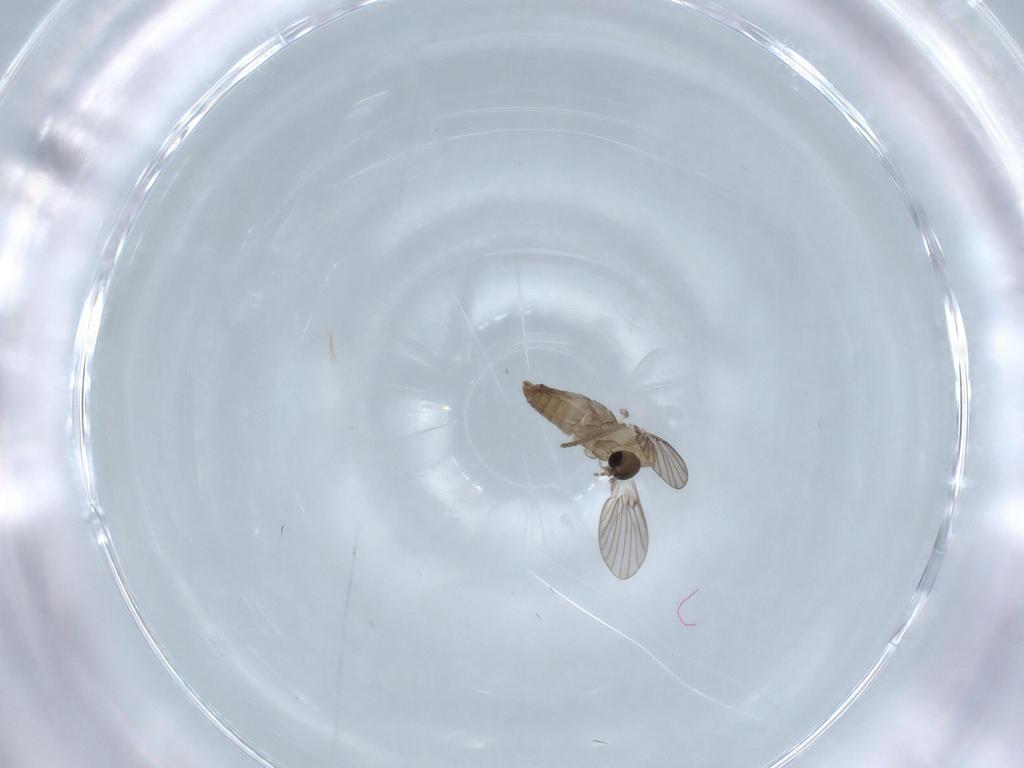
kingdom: Animalia
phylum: Arthropoda
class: Insecta
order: Diptera
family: Psychodidae
